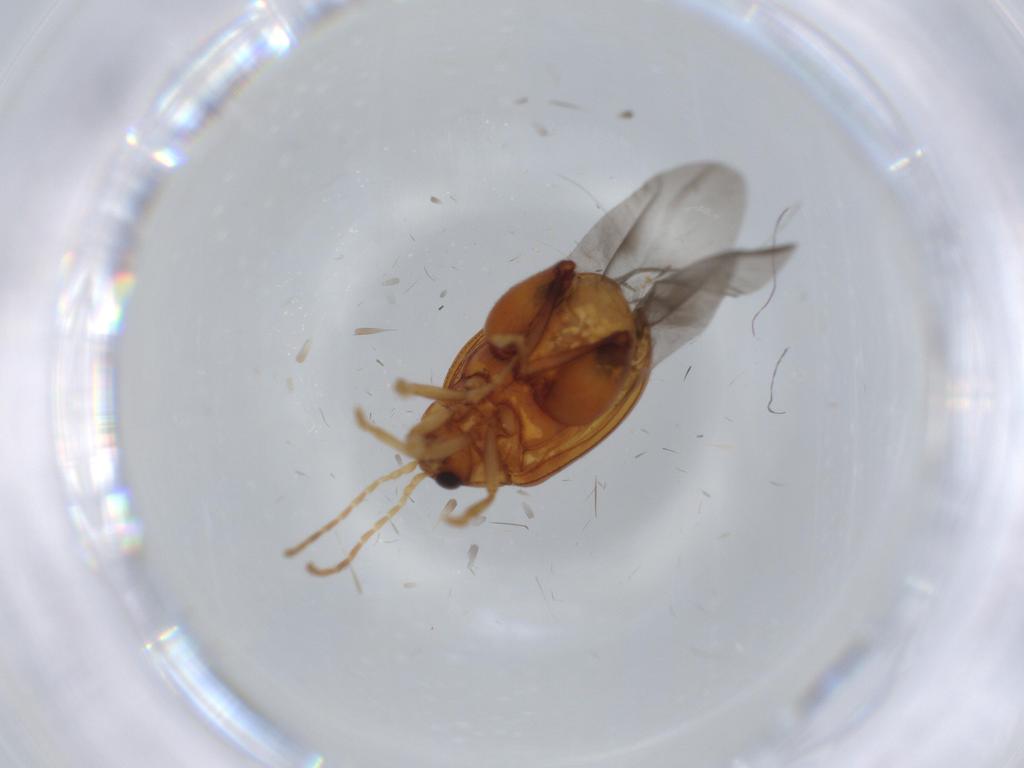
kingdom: Animalia
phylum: Arthropoda
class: Insecta
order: Coleoptera
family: Chrysomelidae
